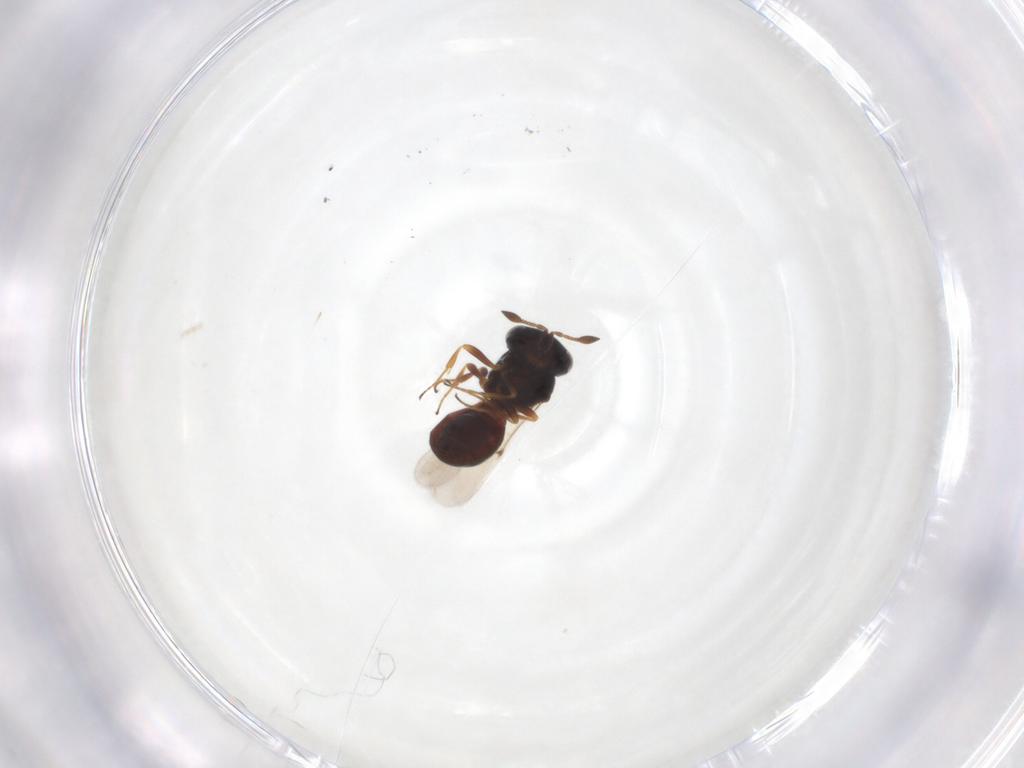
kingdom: Animalia
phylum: Arthropoda
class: Insecta
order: Hymenoptera
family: Scelionidae
